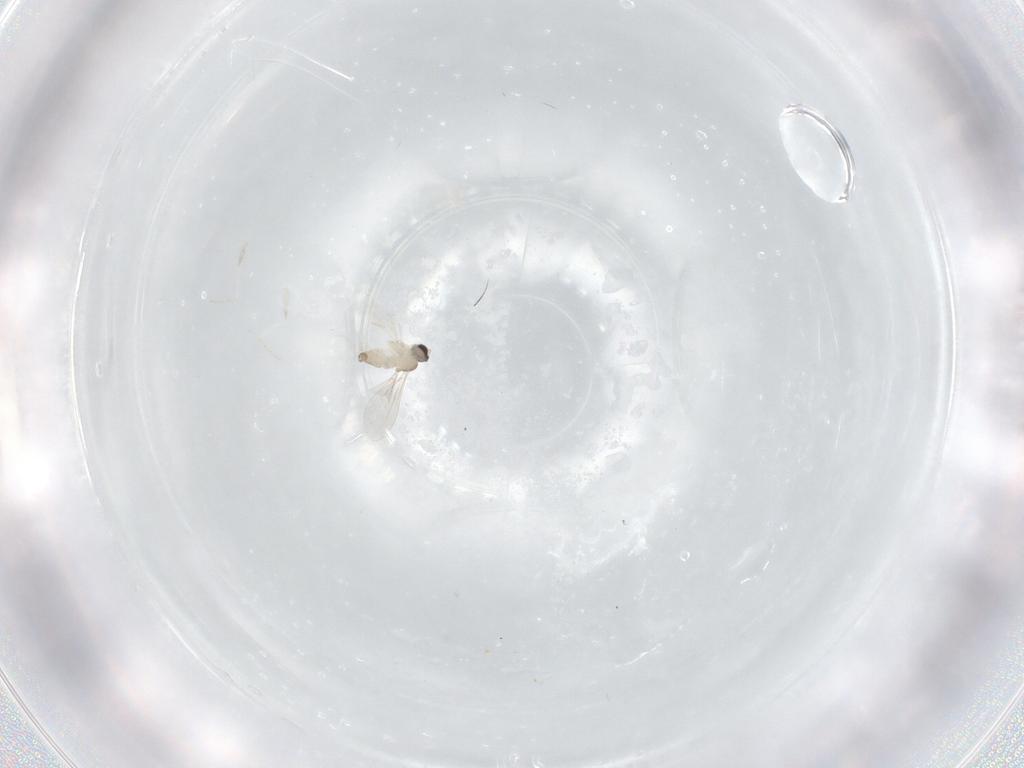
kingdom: Animalia
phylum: Arthropoda
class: Insecta
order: Diptera
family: Cecidomyiidae
